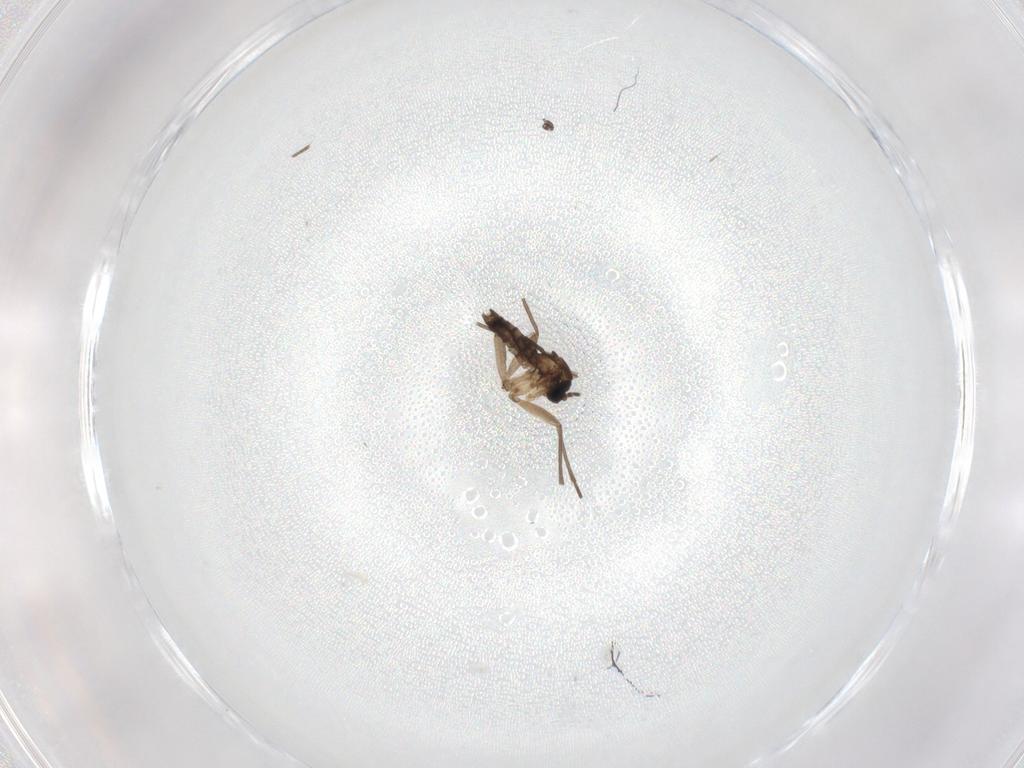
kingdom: Animalia
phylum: Arthropoda
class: Insecta
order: Diptera
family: Sciaridae
